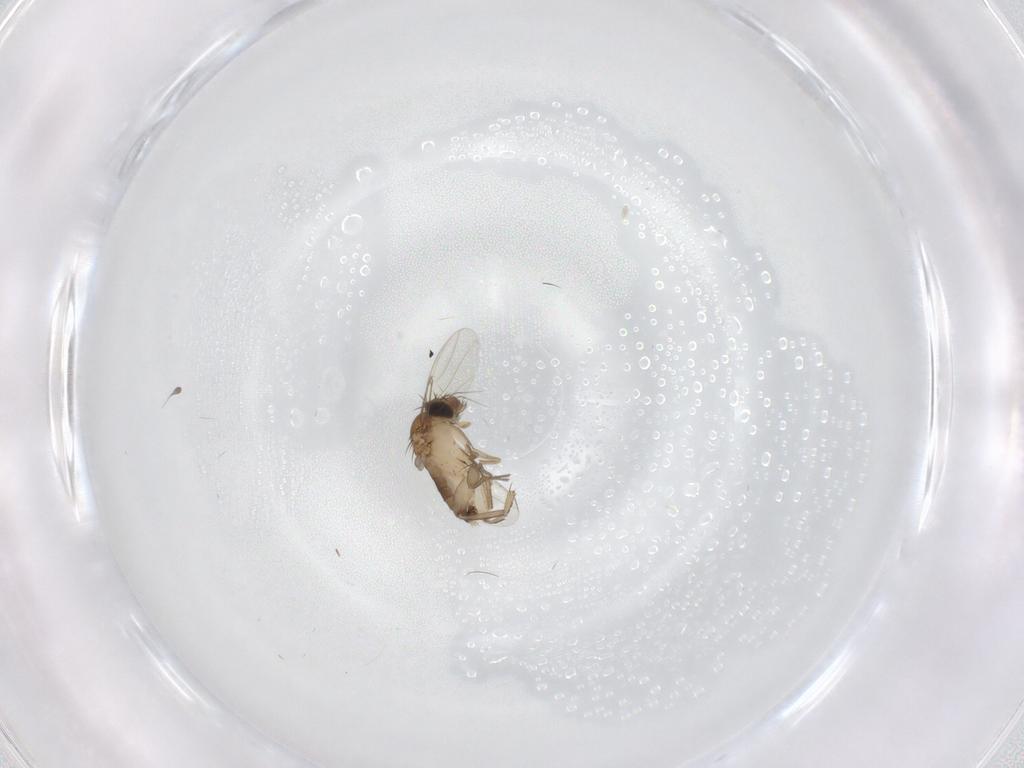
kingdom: Animalia
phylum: Arthropoda
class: Insecta
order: Diptera
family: Phoridae
